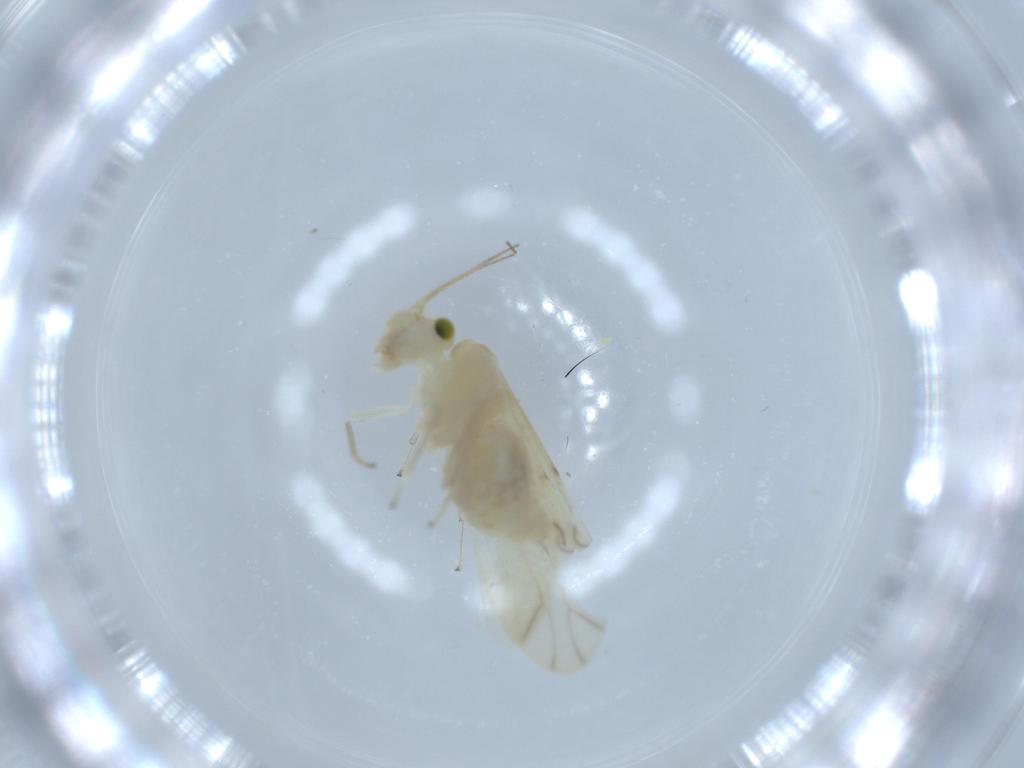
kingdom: Animalia
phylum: Arthropoda
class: Insecta
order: Psocodea
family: Caeciliusidae
